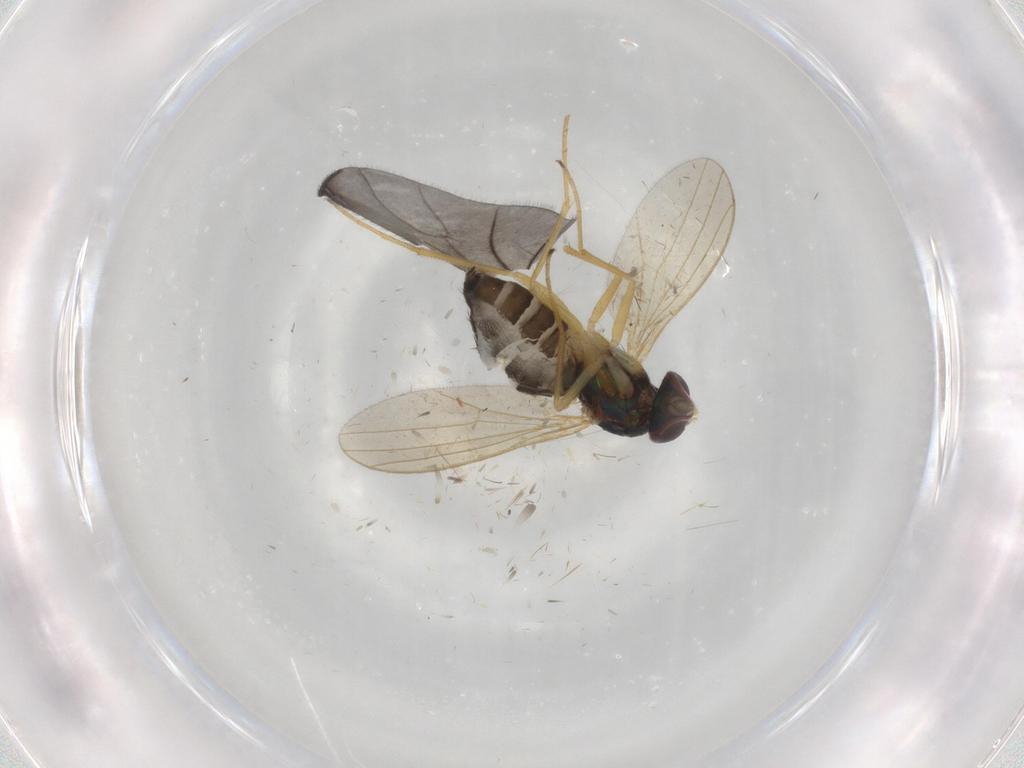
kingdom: Animalia
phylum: Arthropoda
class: Insecta
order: Diptera
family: Dolichopodidae
